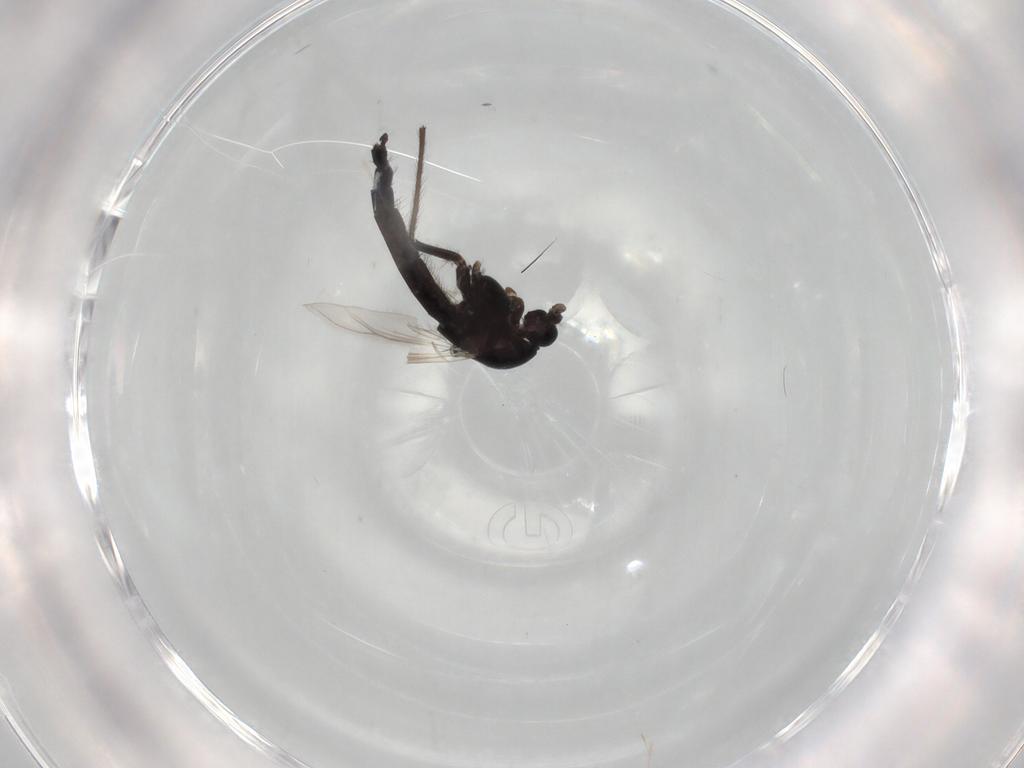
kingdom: Animalia
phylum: Arthropoda
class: Insecta
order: Diptera
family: Chironomidae
